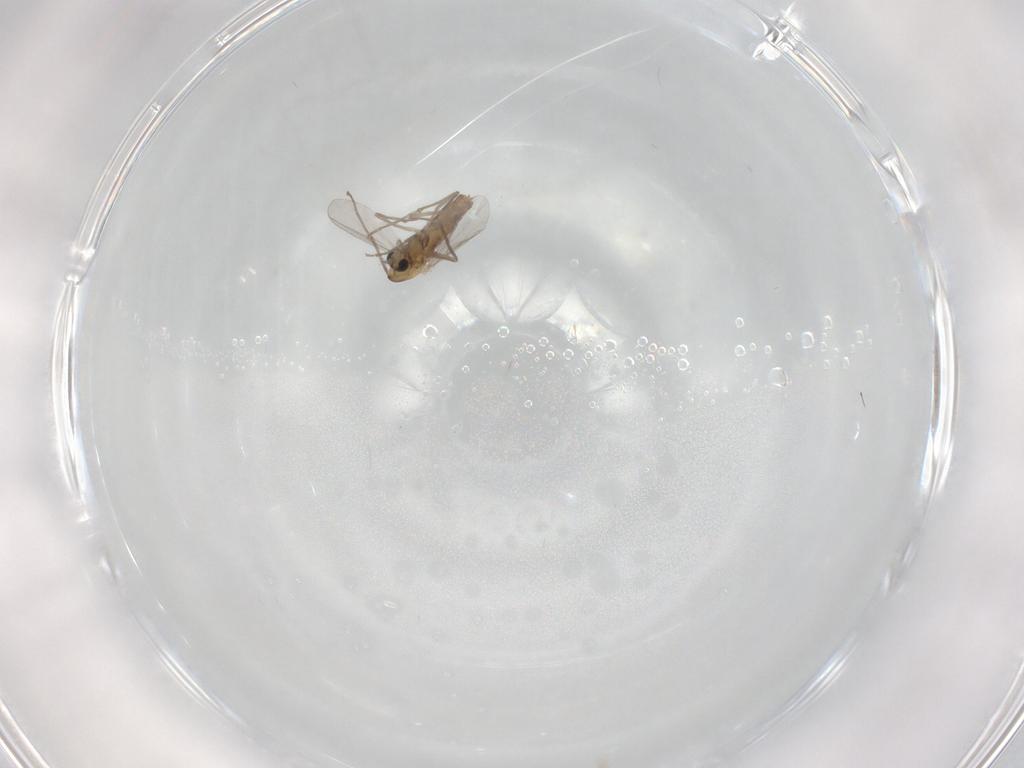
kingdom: Animalia
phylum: Arthropoda
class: Insecta
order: Diptera
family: Chironomidae
